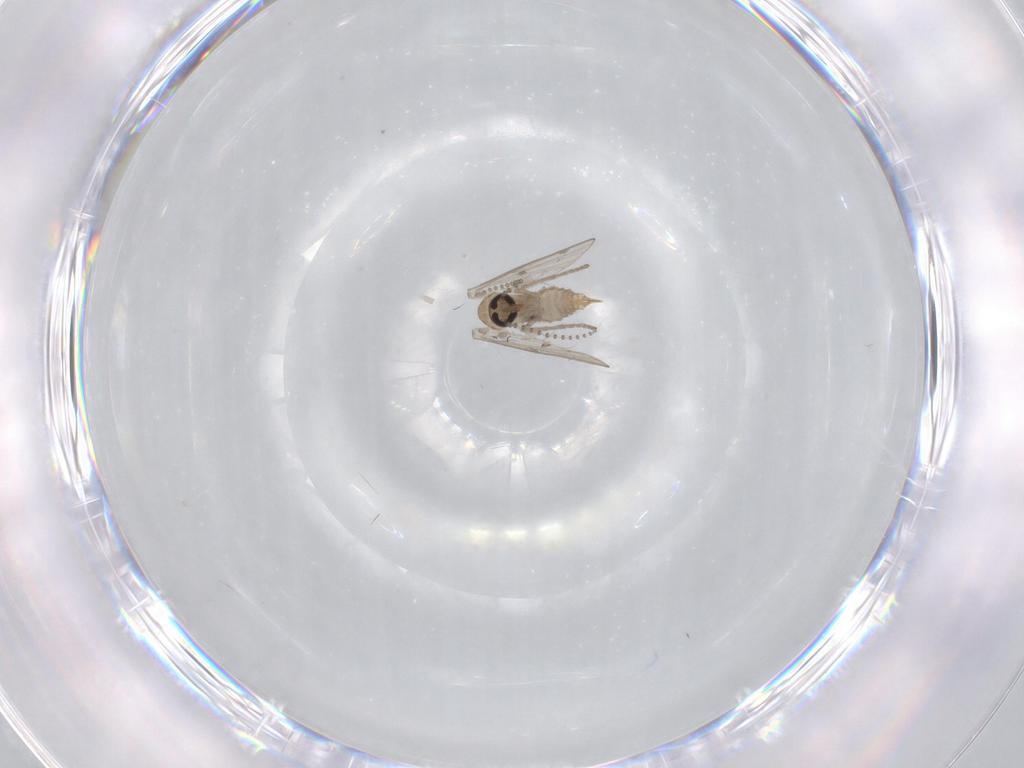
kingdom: Animalia
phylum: Arthropoda
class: Insecta
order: Diptera
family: Psychodidae
